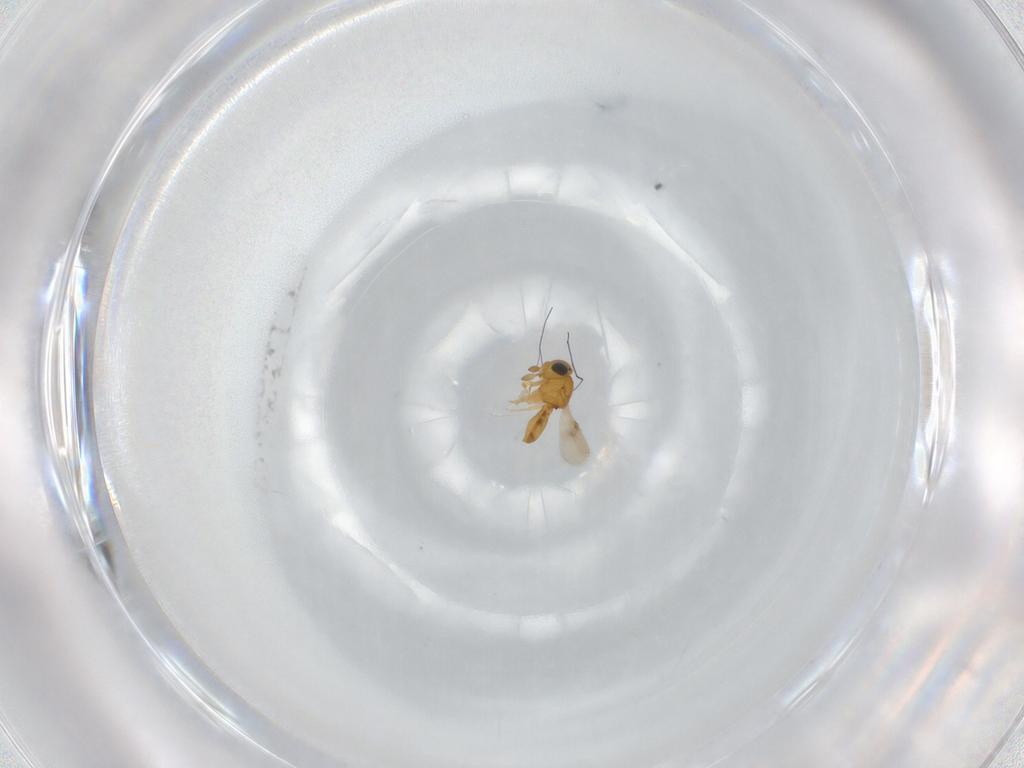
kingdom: Animalia
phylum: Arthropoda
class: Insecta
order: Hymenoptera
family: Scelionidae
